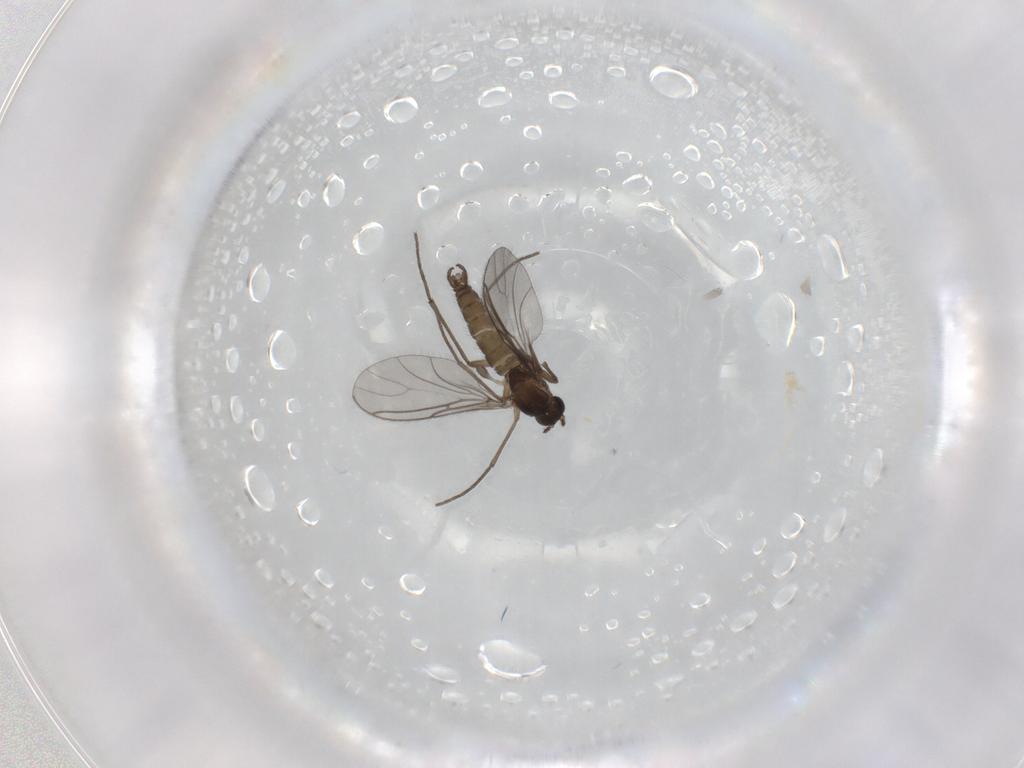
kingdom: Animalia
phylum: Arthropoda
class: Insecta
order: Diptera
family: Sciaridae
